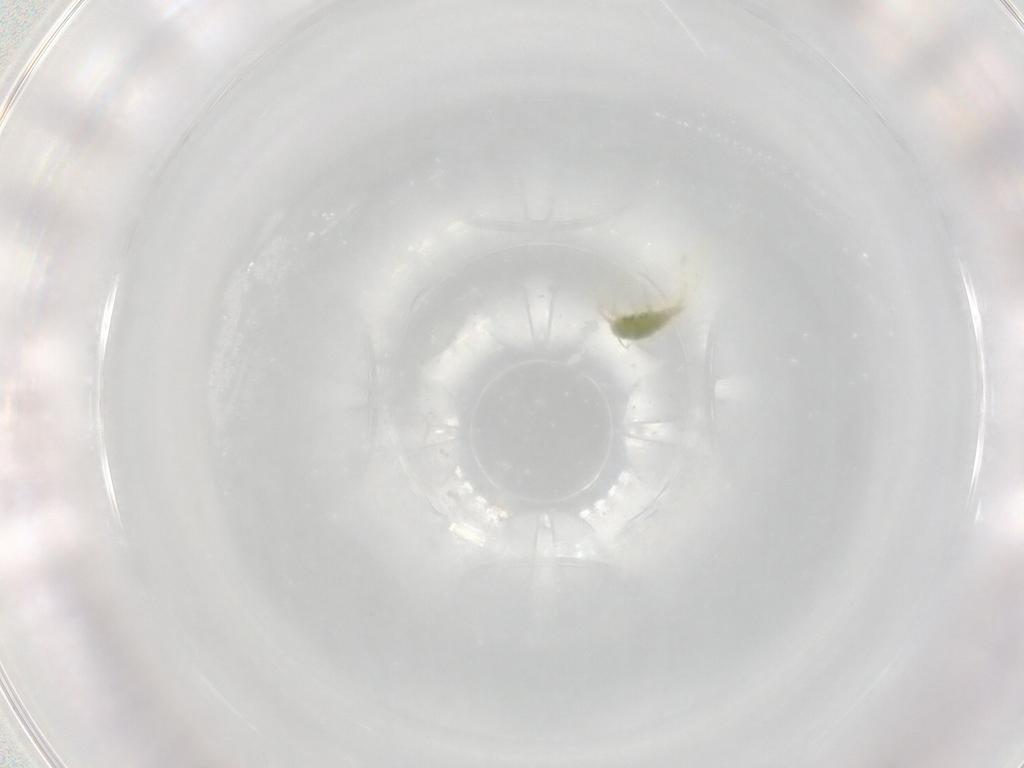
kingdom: Animalia
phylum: Arthropoda
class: Arachnida
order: Trombidiformes
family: Erythraeidae
